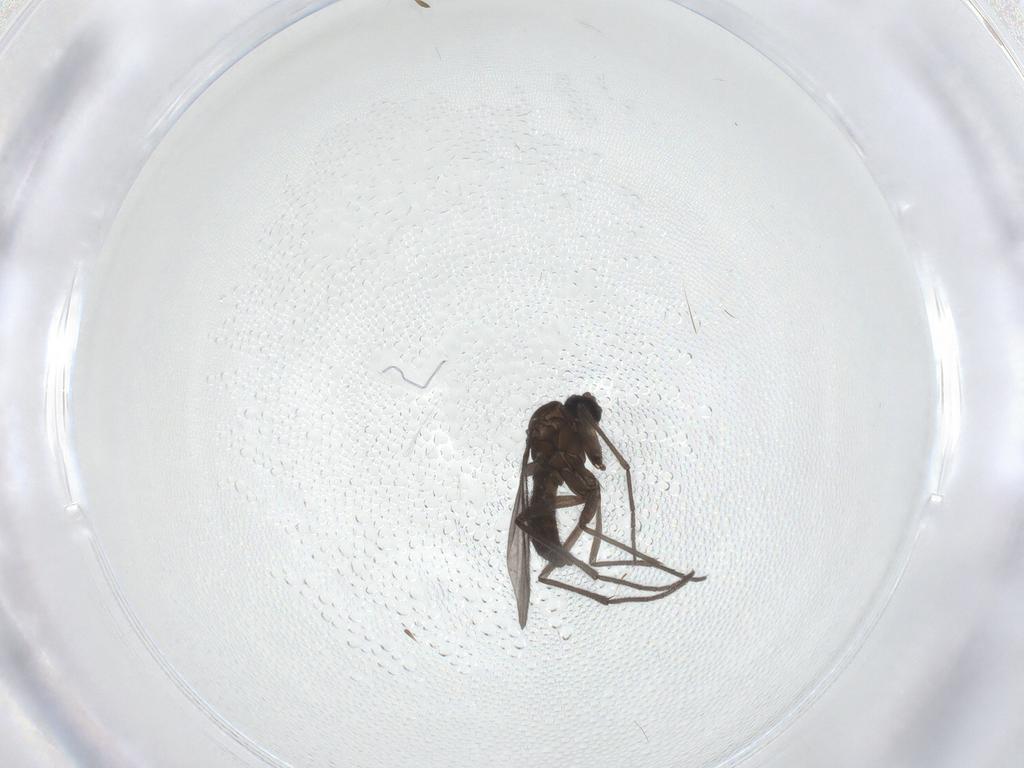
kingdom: Animalia
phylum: Arthropoda
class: Insecta
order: Diptera
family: Sciaridae
